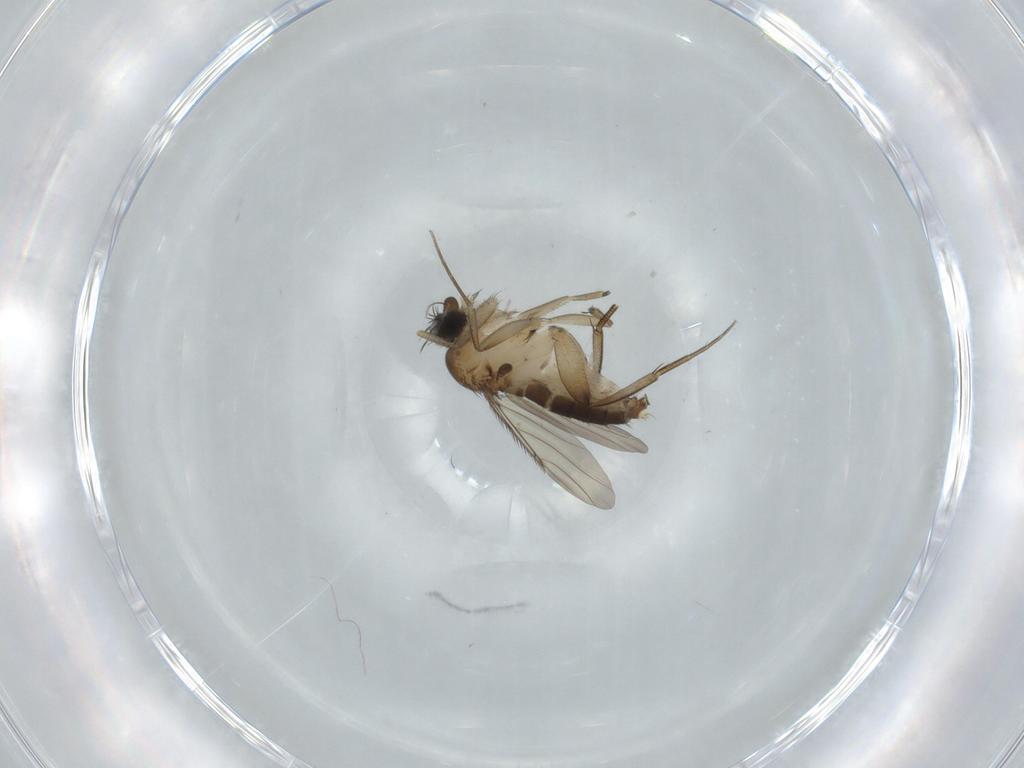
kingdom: Animalia
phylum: Arthropoda
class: Insecta
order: Diptera
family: Phoridae
